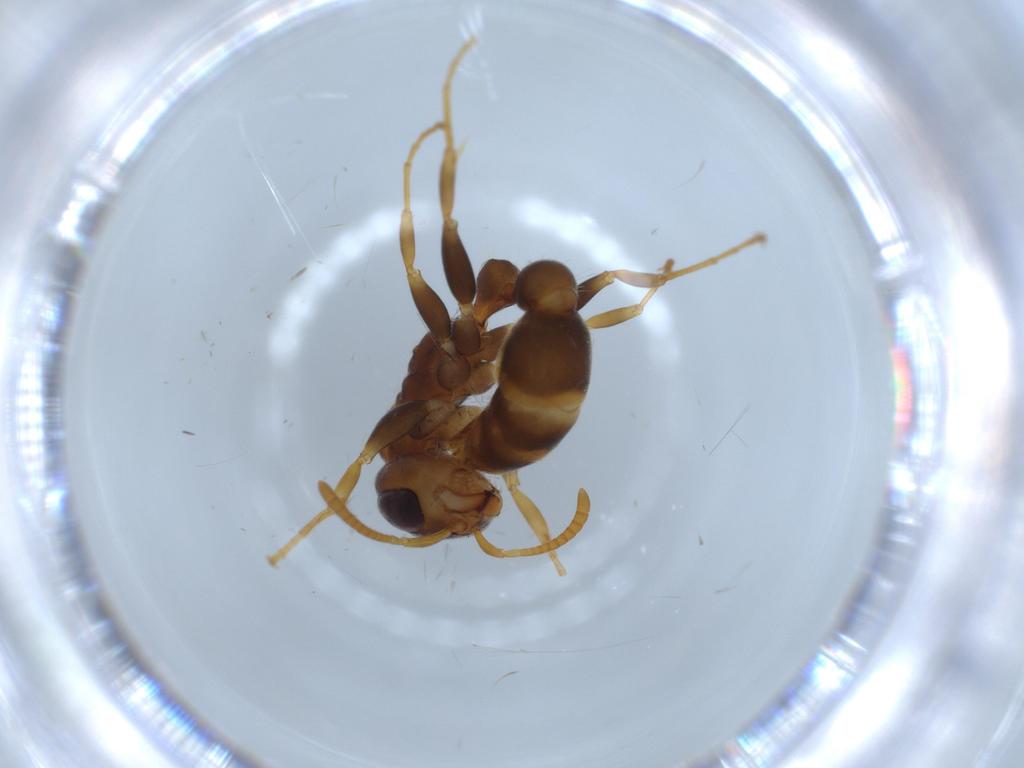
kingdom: Animalia
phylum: Arthropoda
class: Insecta
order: Hymenoptera
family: Formicidae
